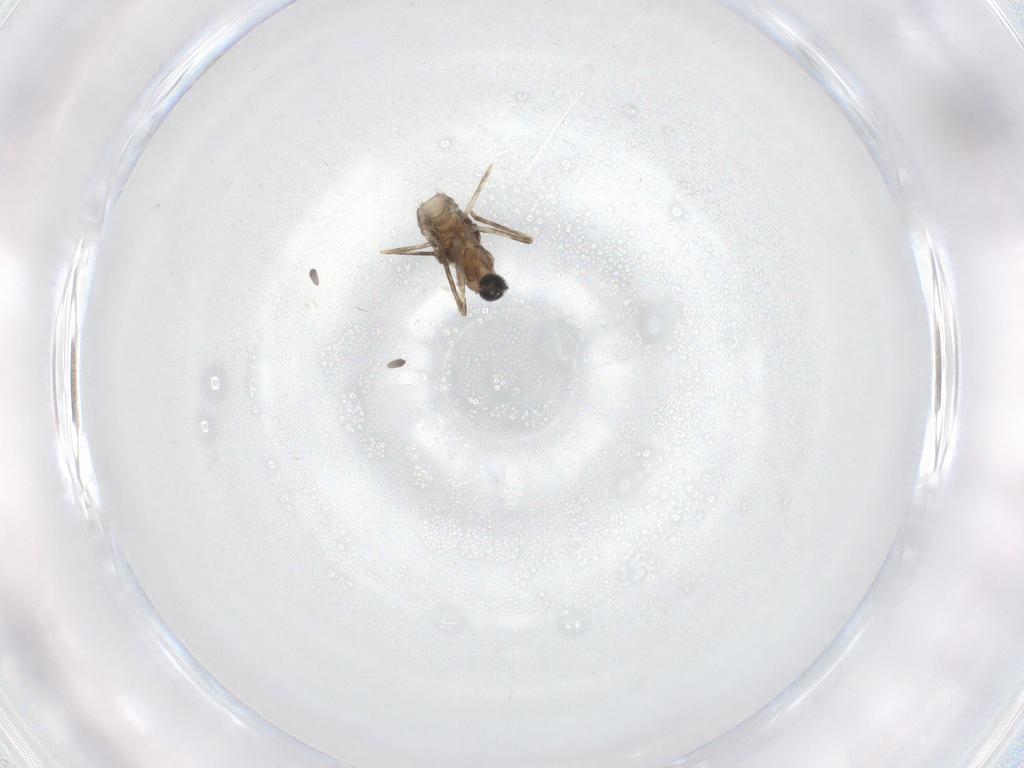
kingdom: Animalia
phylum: Arthropoda
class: Insecta
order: Diptera
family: Cecidomyiidae
